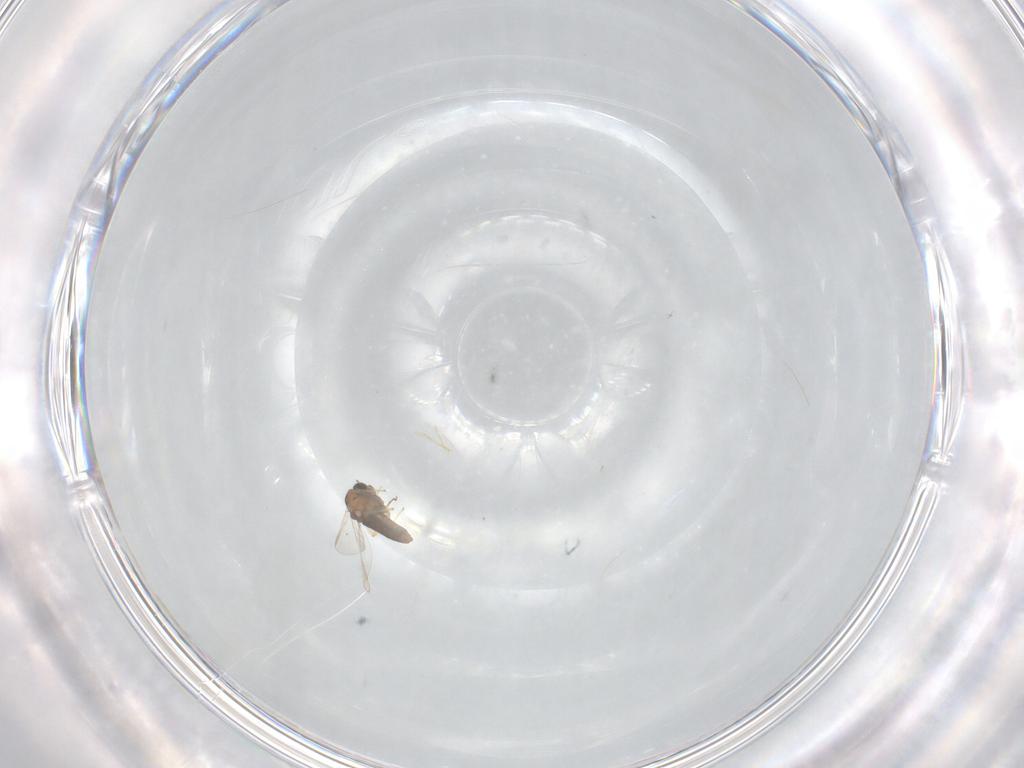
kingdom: Animalia
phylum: Arthropoda
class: Insecta
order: Diptera
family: Chironomidae
